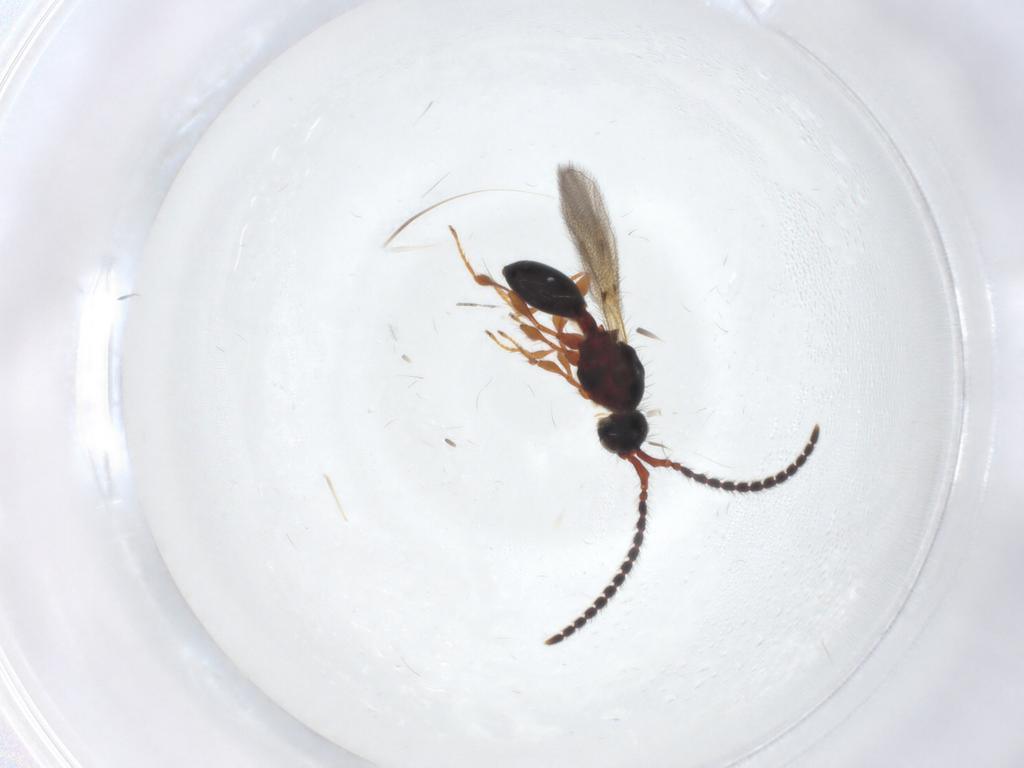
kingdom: Animalia
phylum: Arthropoda
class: Insecta
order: Hymenoptera
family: Diapriidae
